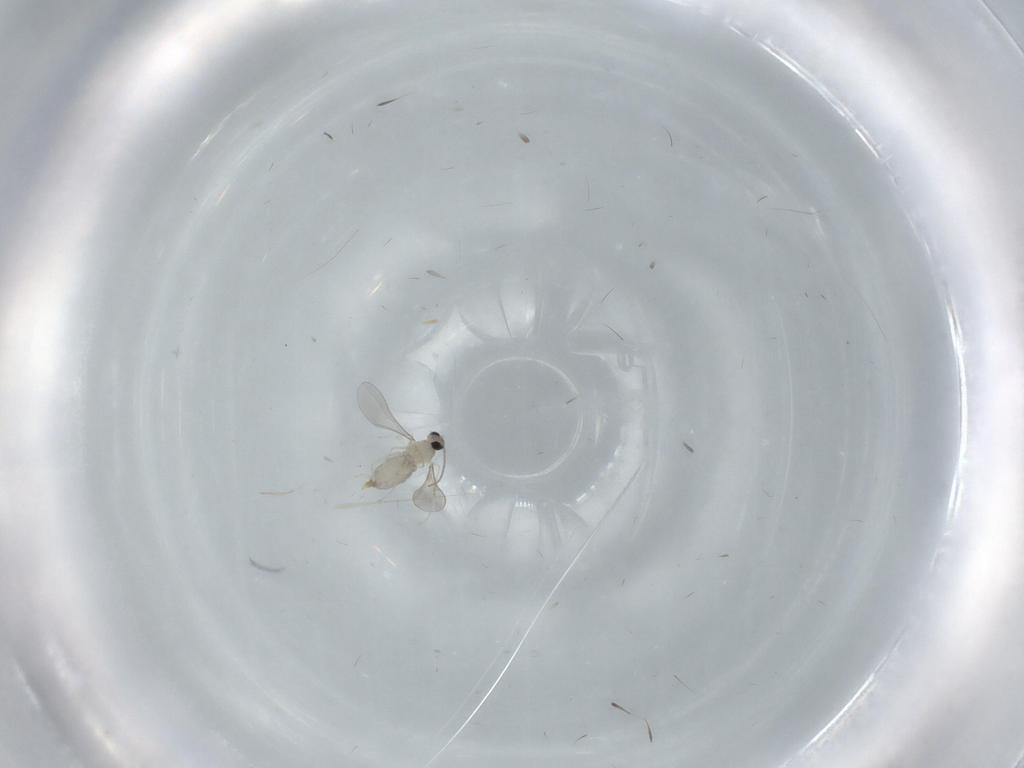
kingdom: Animalia
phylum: Arthropoda
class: Insecta
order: Diptera
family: Syrphidae
